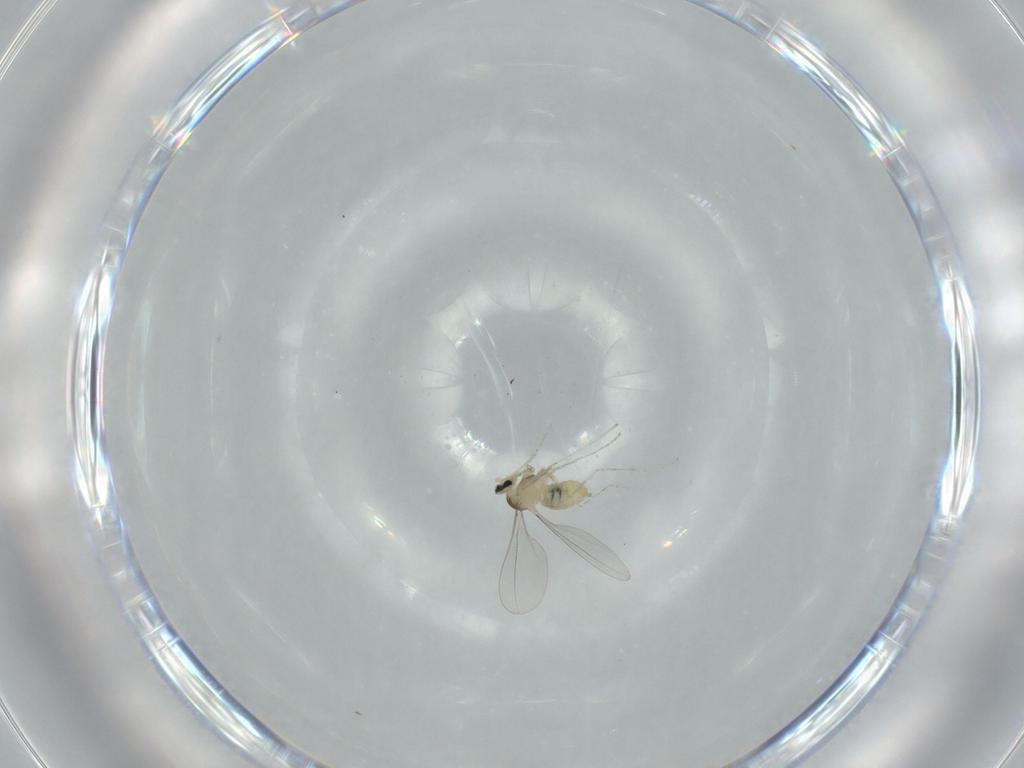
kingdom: Animalia
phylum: Arthropoda
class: Insecta
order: Diptera
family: Cecidomyiidae
